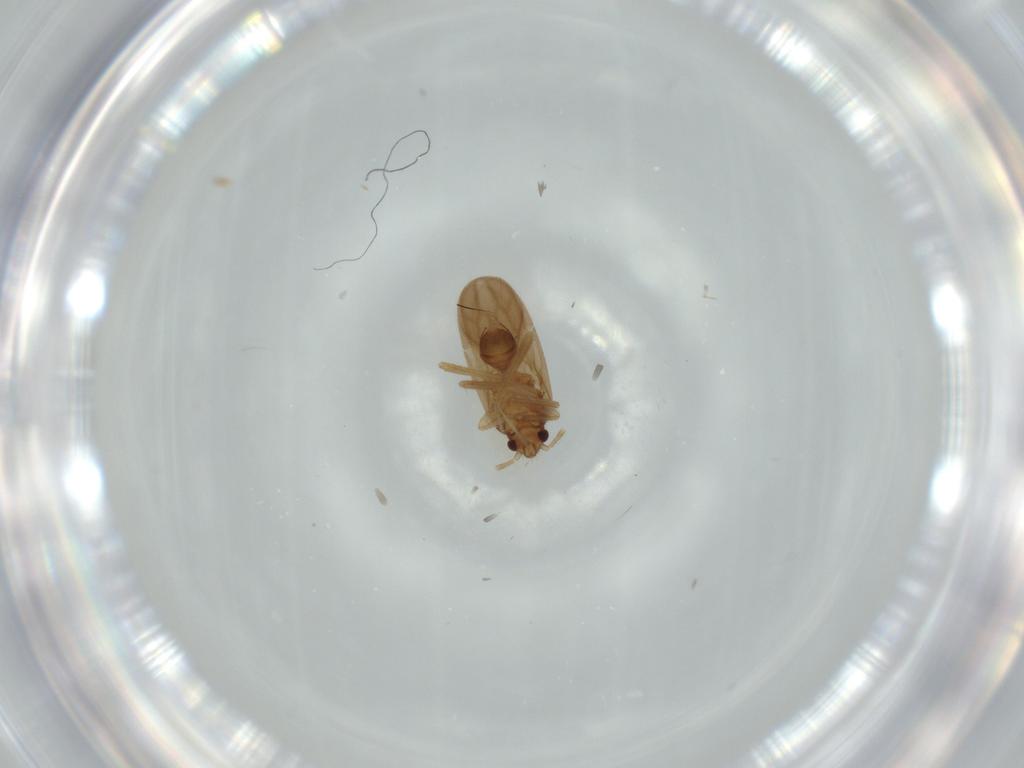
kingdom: Animalia
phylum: Arthropoda
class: Insecta
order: Hemiptera
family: Ceratocombidae
